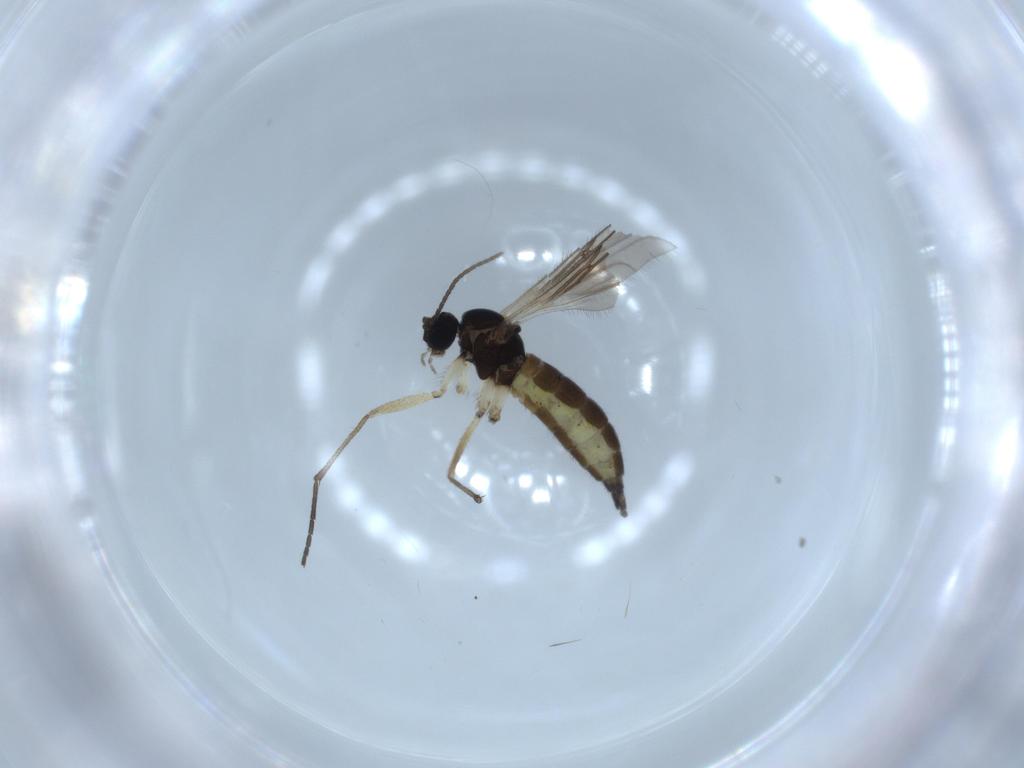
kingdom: Animalia
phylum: Arthropoda
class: Insecta
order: Diptera
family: Sciaridae
